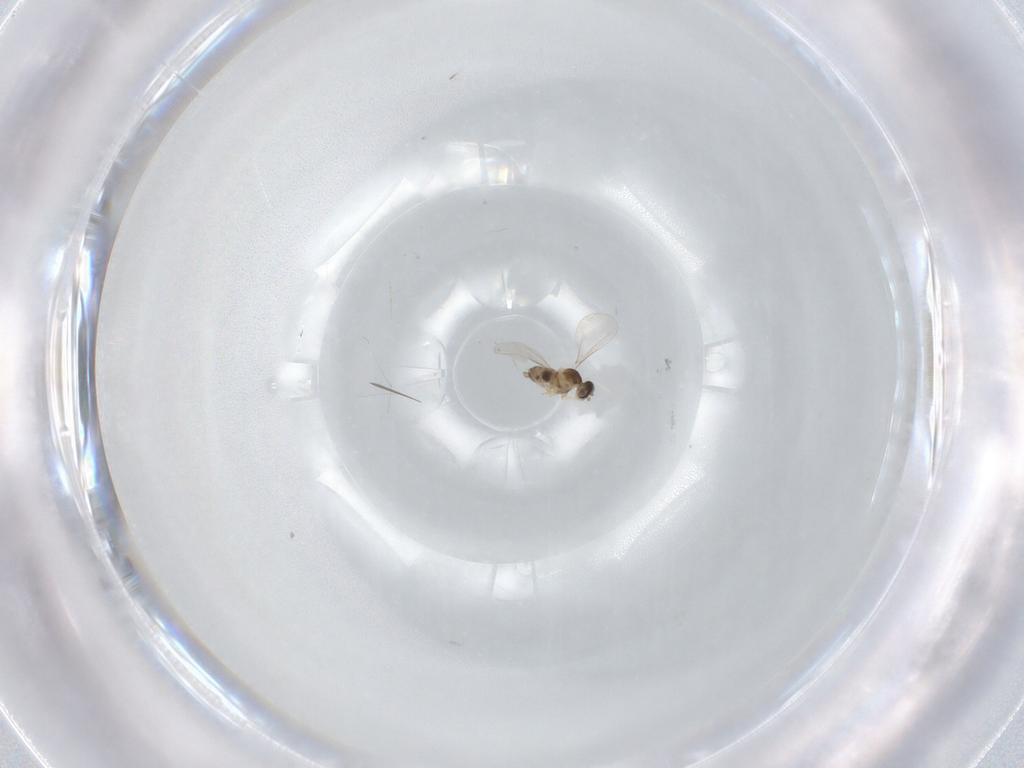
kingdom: Animalia
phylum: Arthropoda
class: Insecta
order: Diptera
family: Cecidomyiidae
